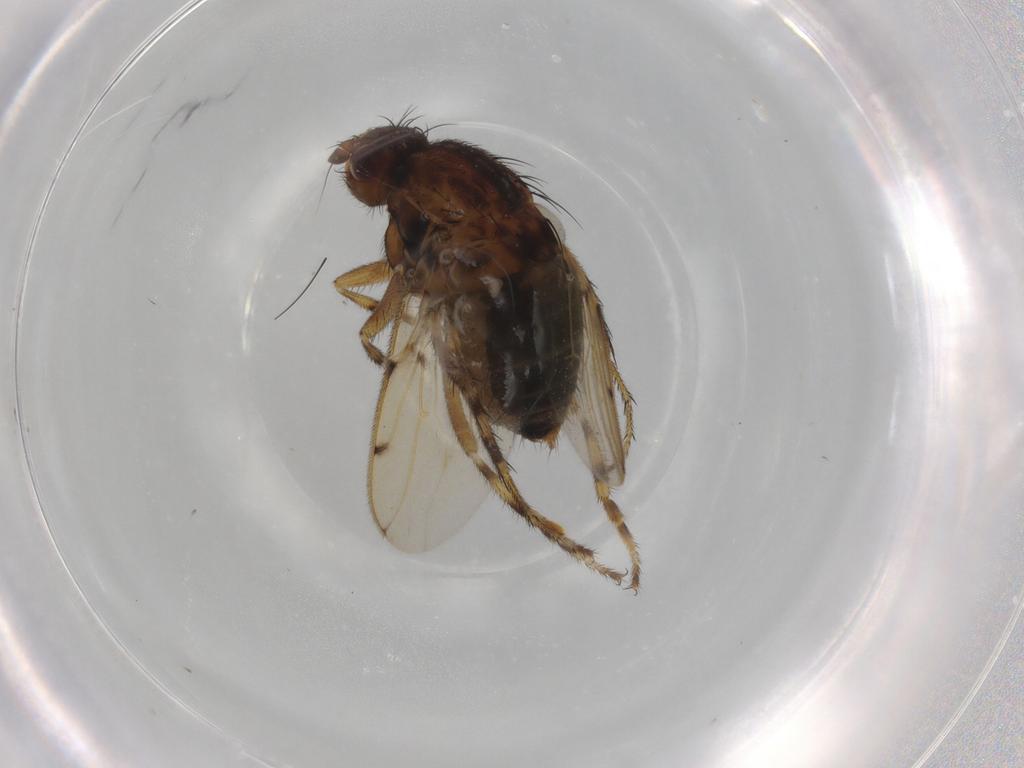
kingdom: Animalia
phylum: Arthropoda
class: Insecta
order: Diptera
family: Sphaeroceridae
